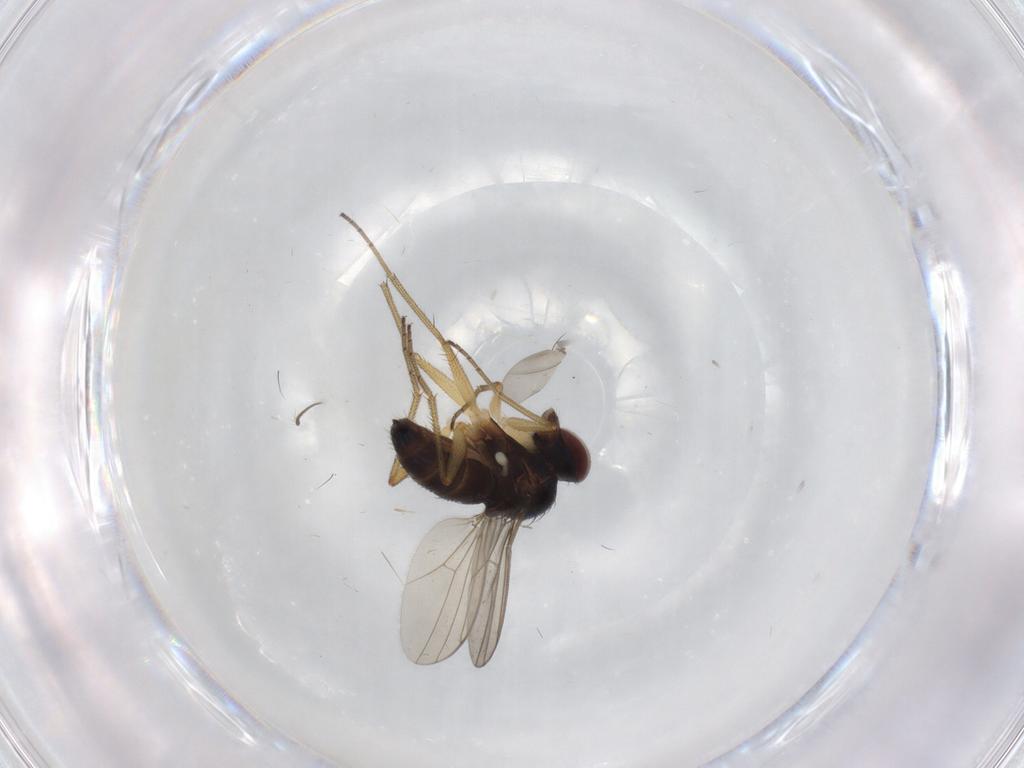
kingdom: Animalia
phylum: Arthropoda
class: Insecta
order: Diptera
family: Dolichopodidae
